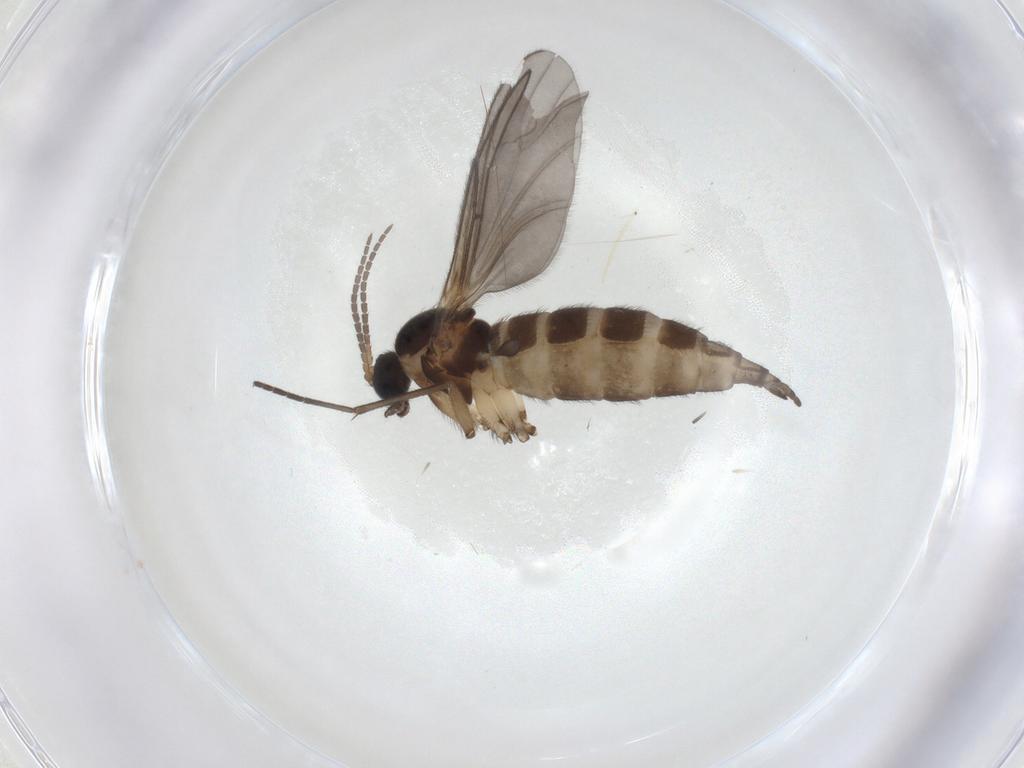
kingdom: Animalia
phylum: Arthropoda
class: Insecta
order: Diptera
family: Sciaridae
